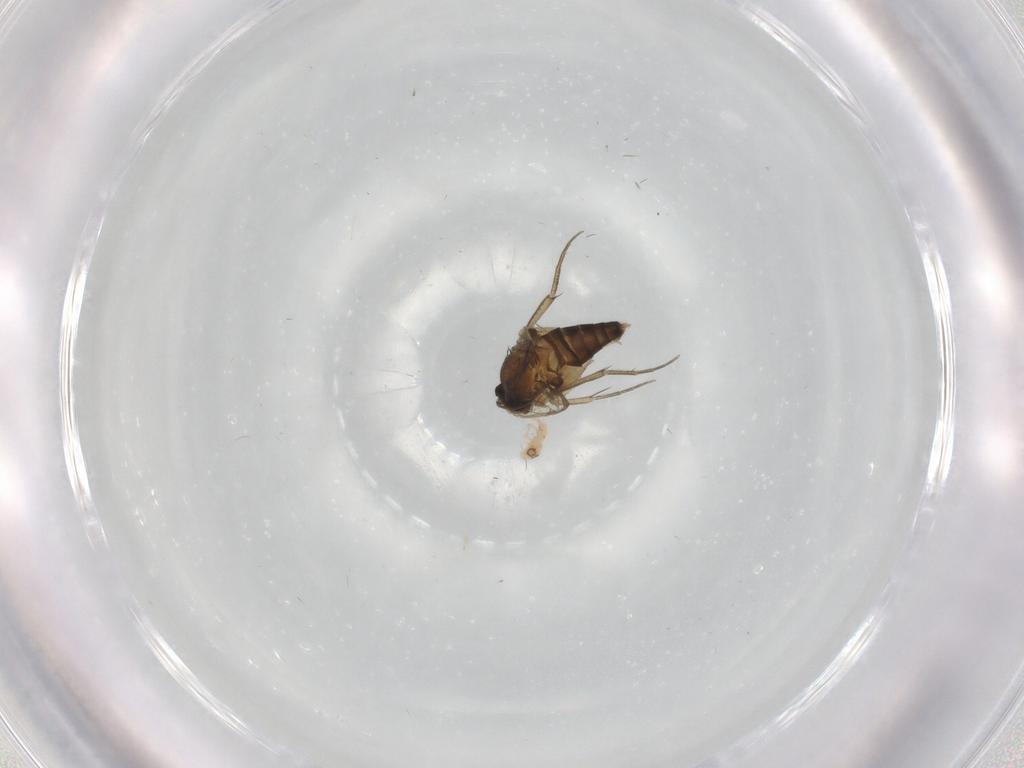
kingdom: Animalia
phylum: Arthropoda
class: Insecta
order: Diptera
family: Phoridae
